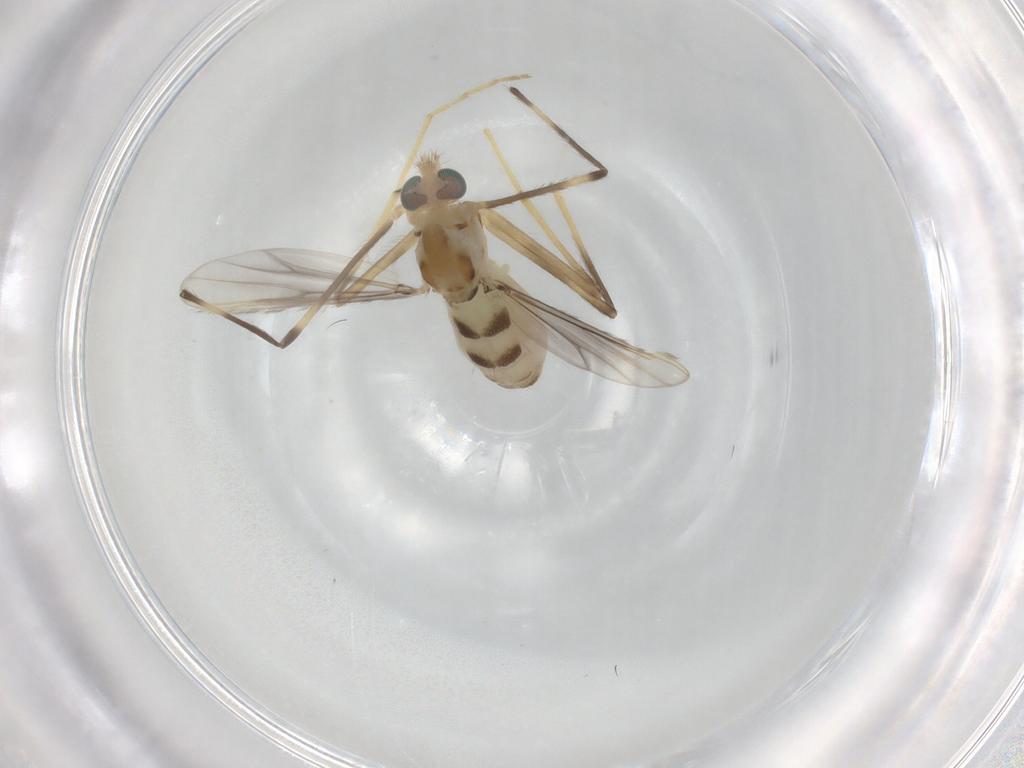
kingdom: Animalia
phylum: Arthropoda
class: Insecta
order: Diptera
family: Chironomidae
